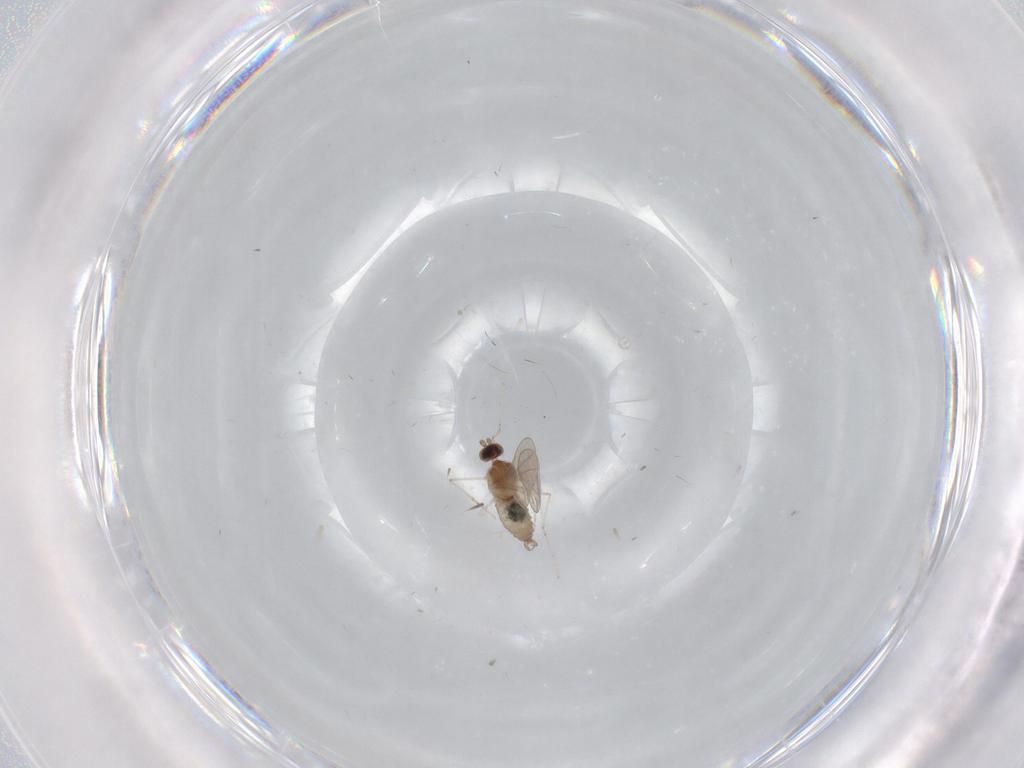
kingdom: Animalia
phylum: Arthropoda
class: Insecta
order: Diptera
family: Cecidomyiidae
